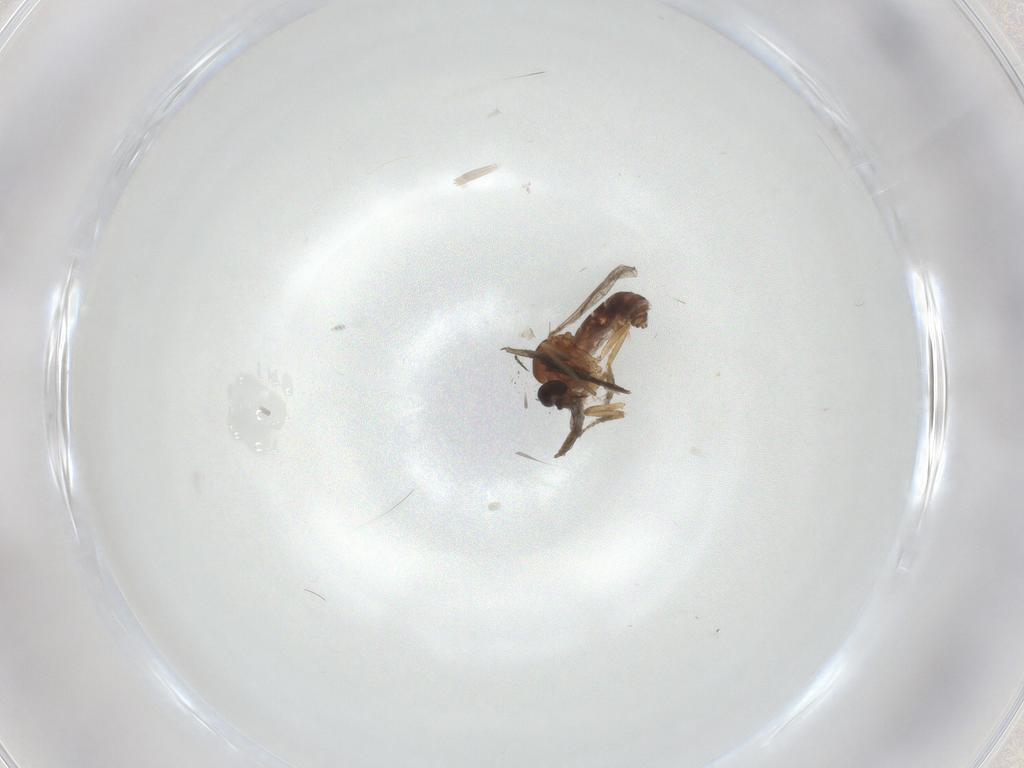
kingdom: Animalia
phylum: Arthropoda
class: Insecta
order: Diptera
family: Ceratopogonidae
